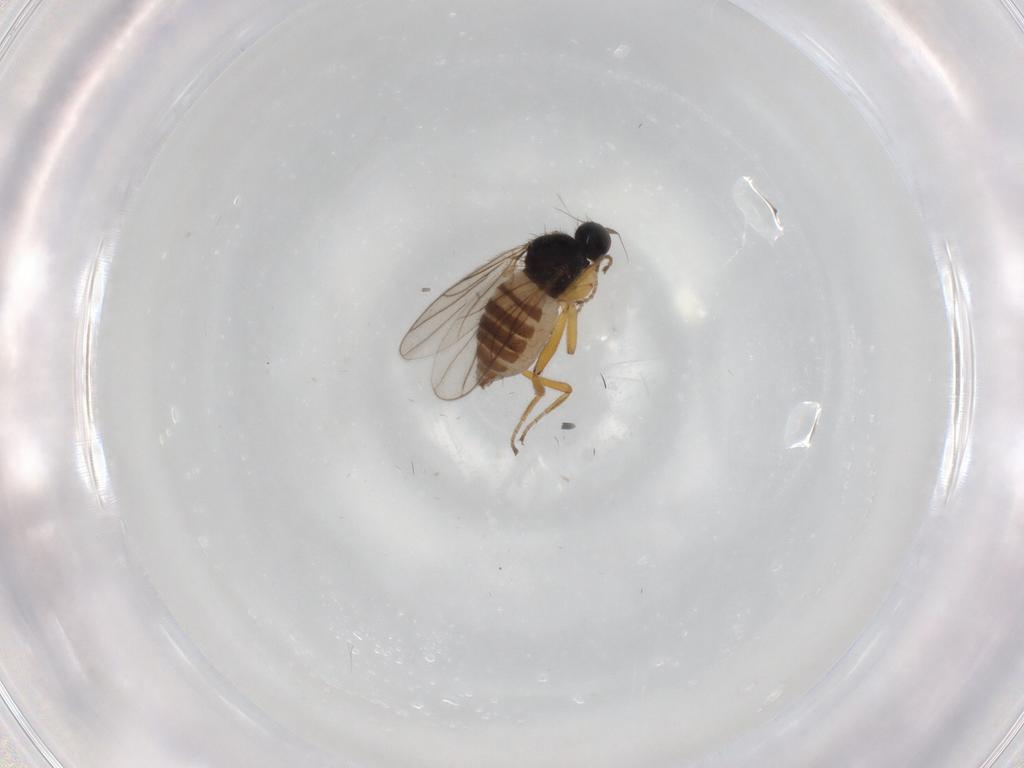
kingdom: Animalia
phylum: Arthropoda
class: Insecta
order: Diptera
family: Hybotidae
